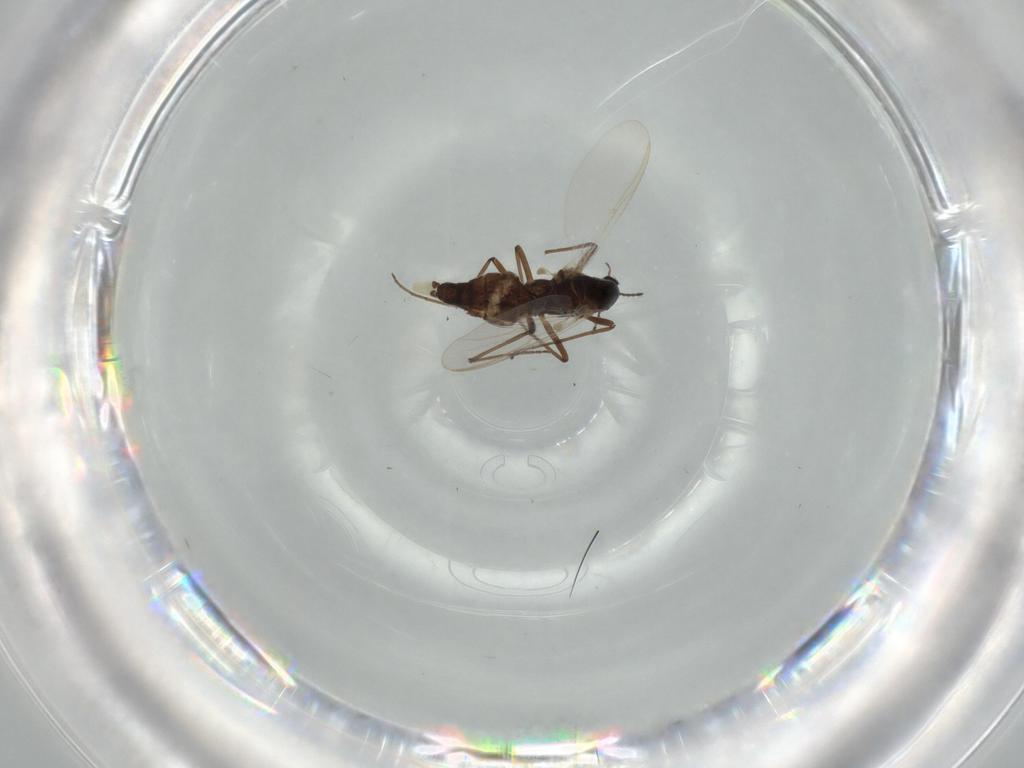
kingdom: Animalia
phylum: Arthropoda
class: Insecta
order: Diptera
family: Chironomidae
